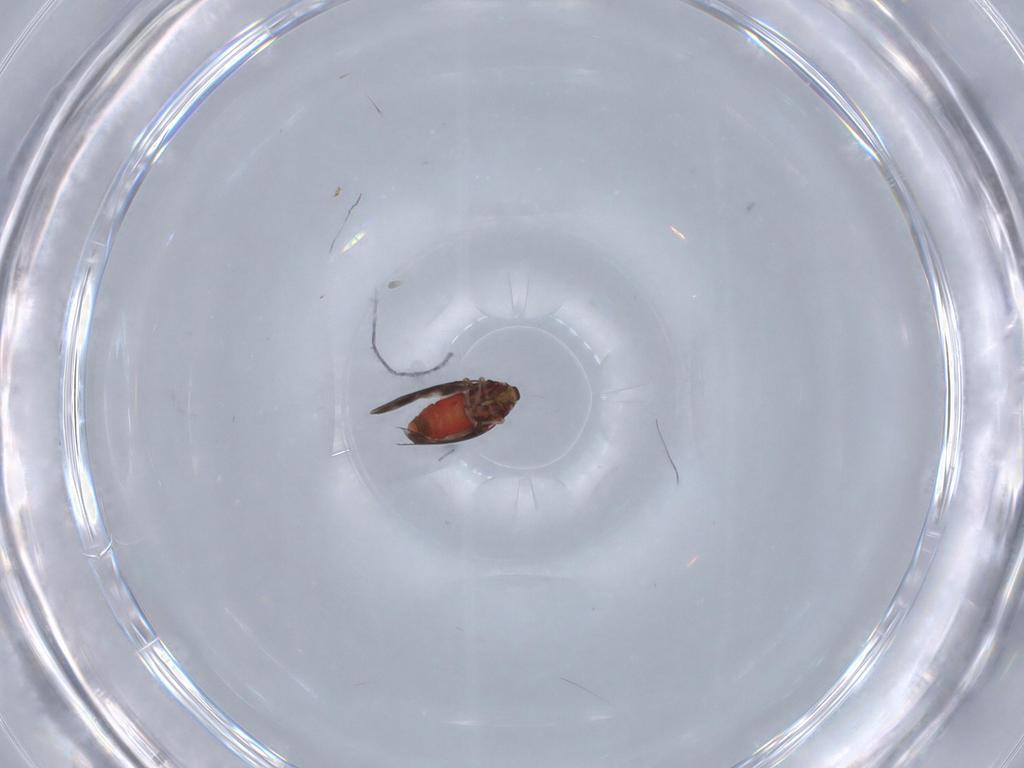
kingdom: Animalia
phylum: Arthropoda
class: Insecta
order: Hemiptera
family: Aleyrodidae
